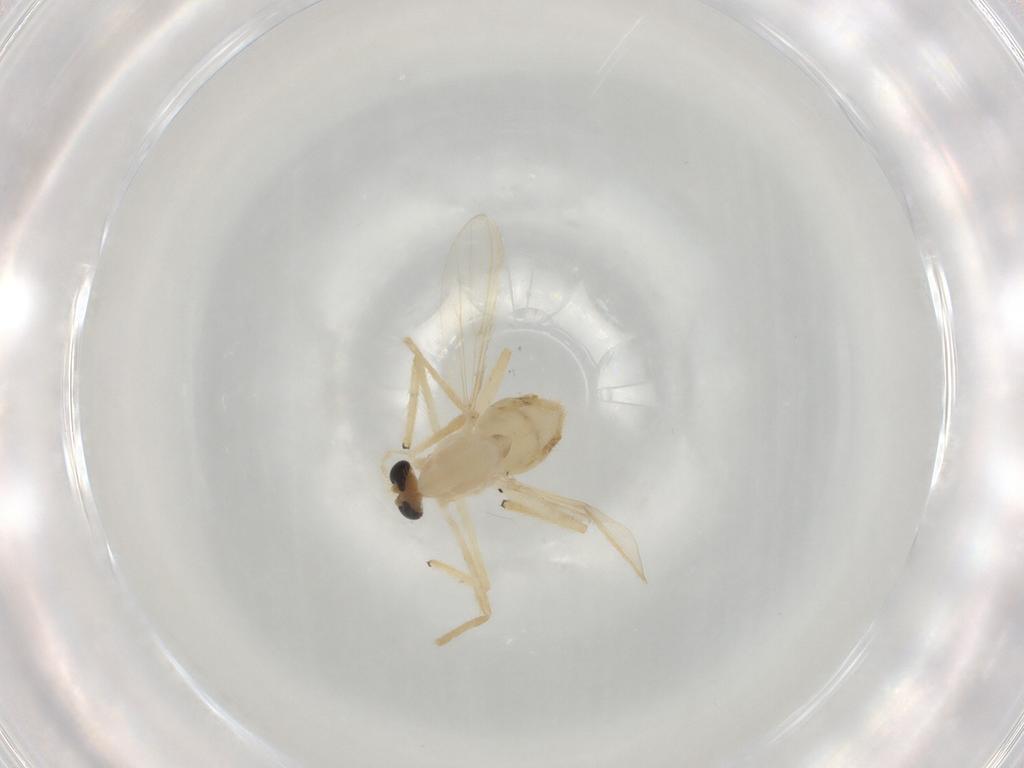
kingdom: Animalia
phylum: Arthropoda
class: Insecta
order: Diptera
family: Chironomidae
